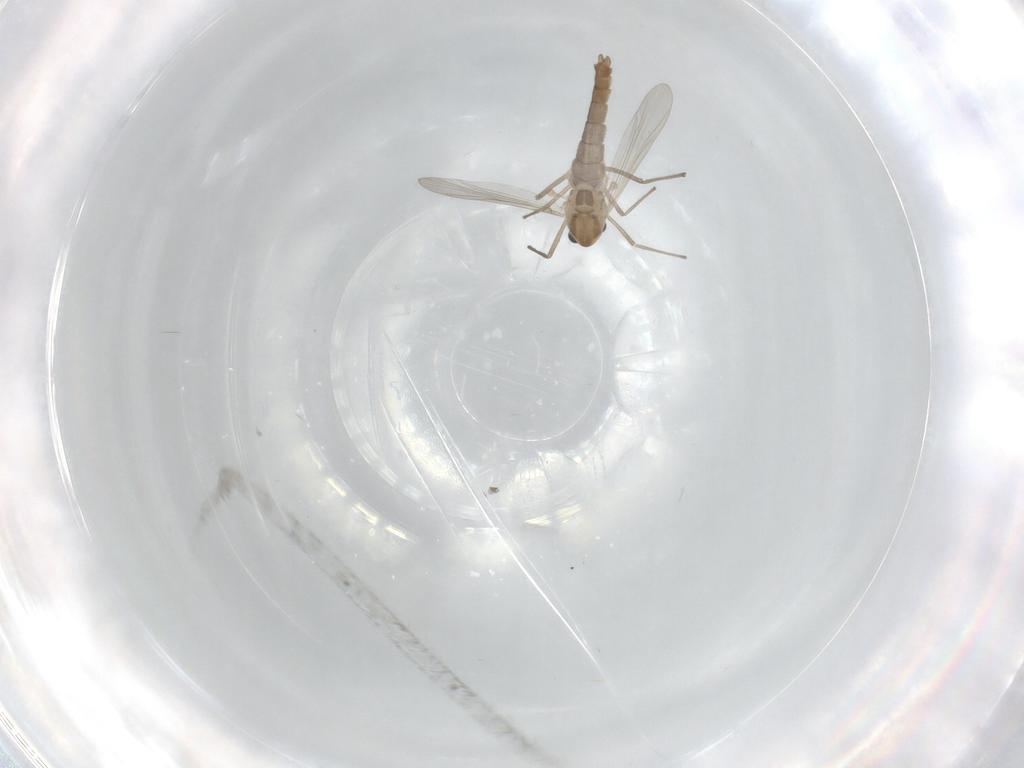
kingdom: Animalia
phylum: Arthropoda
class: Insecta
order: Diptera
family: Chironomidae
